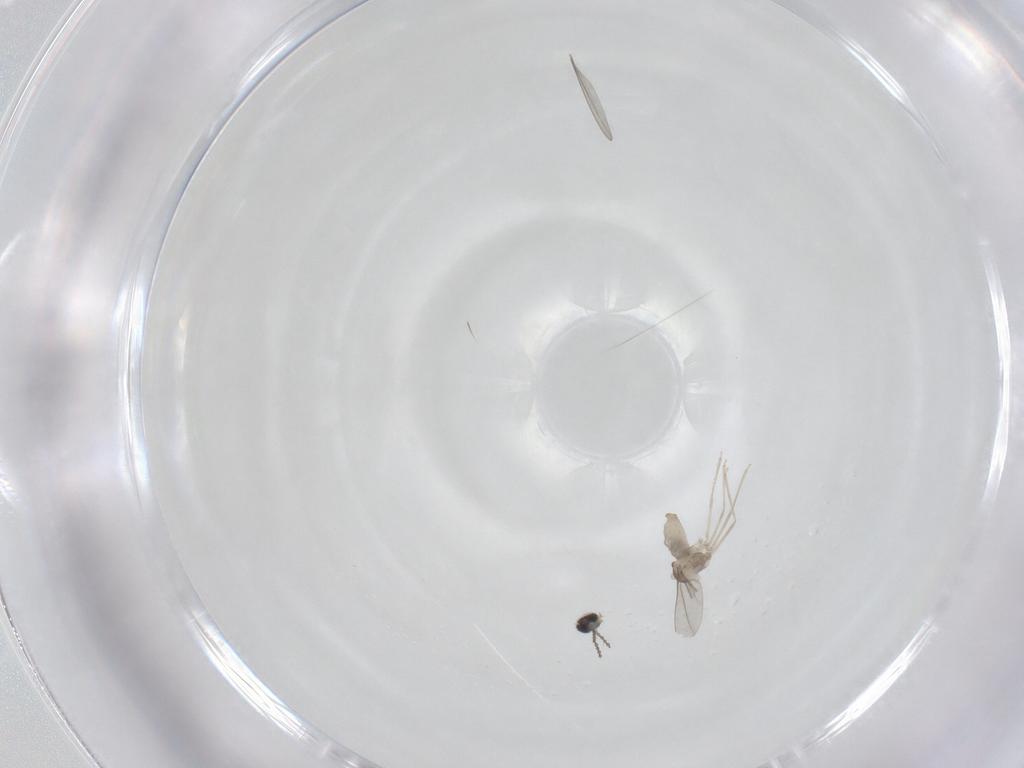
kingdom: Animalia
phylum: Arthropoda
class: Insecta
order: Diptera
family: Cecidomyiidae
